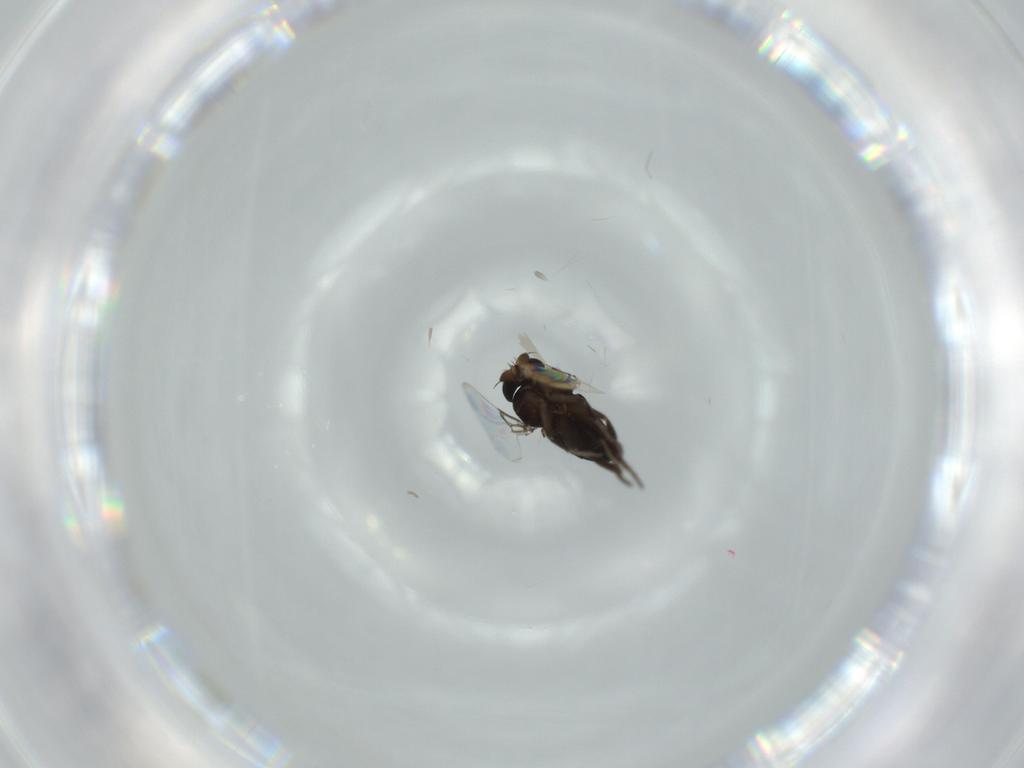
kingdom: Animalia
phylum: Arthropoda
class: Insecta
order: Diptera
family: Phoridae
